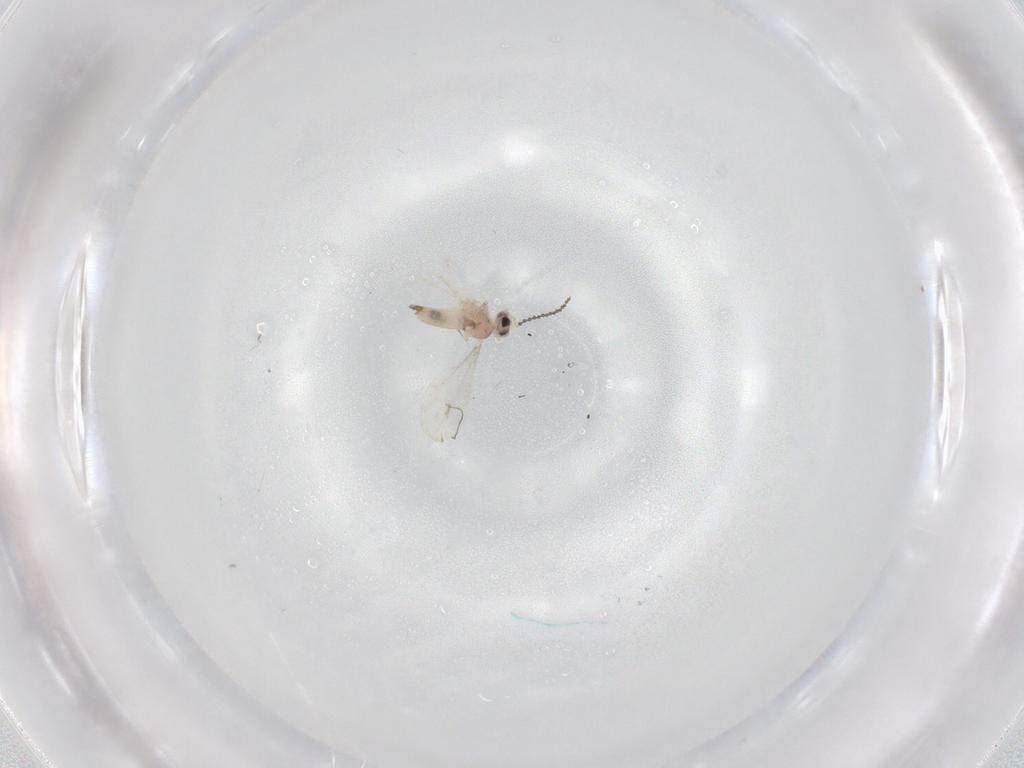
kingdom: Animalia
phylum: Arthropoda
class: Insecta
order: Diptera
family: Cecidomyiidae
